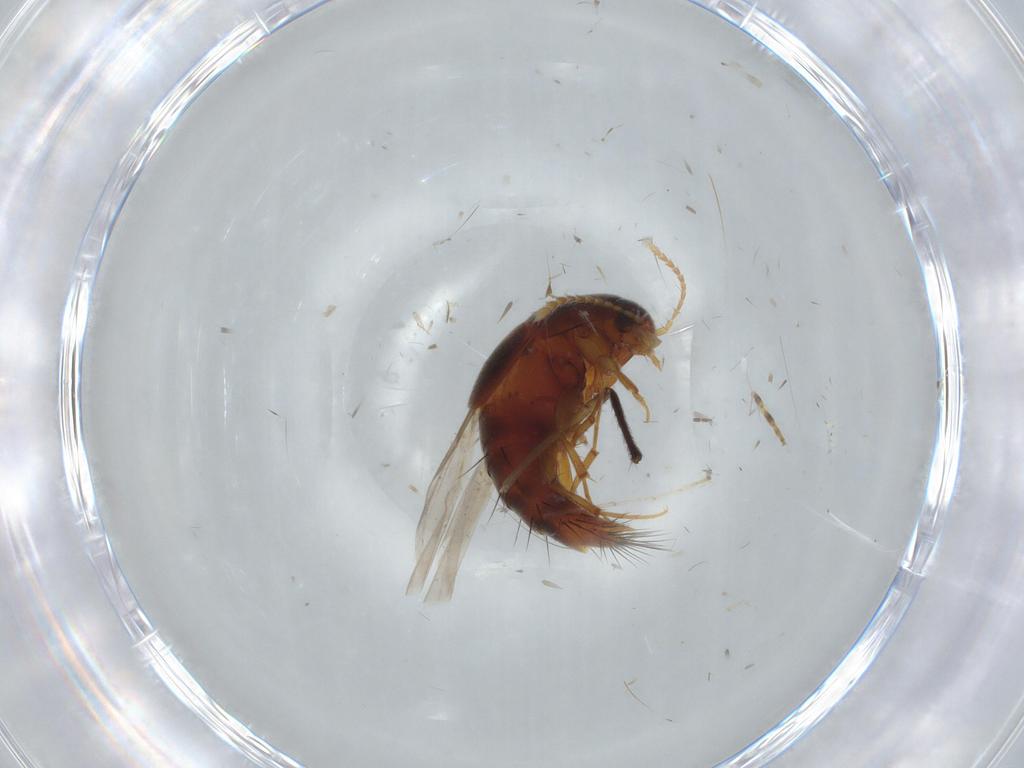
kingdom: Animalia
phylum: Arthropoda
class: Insecta
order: Coleoptera
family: Staphylinidae
